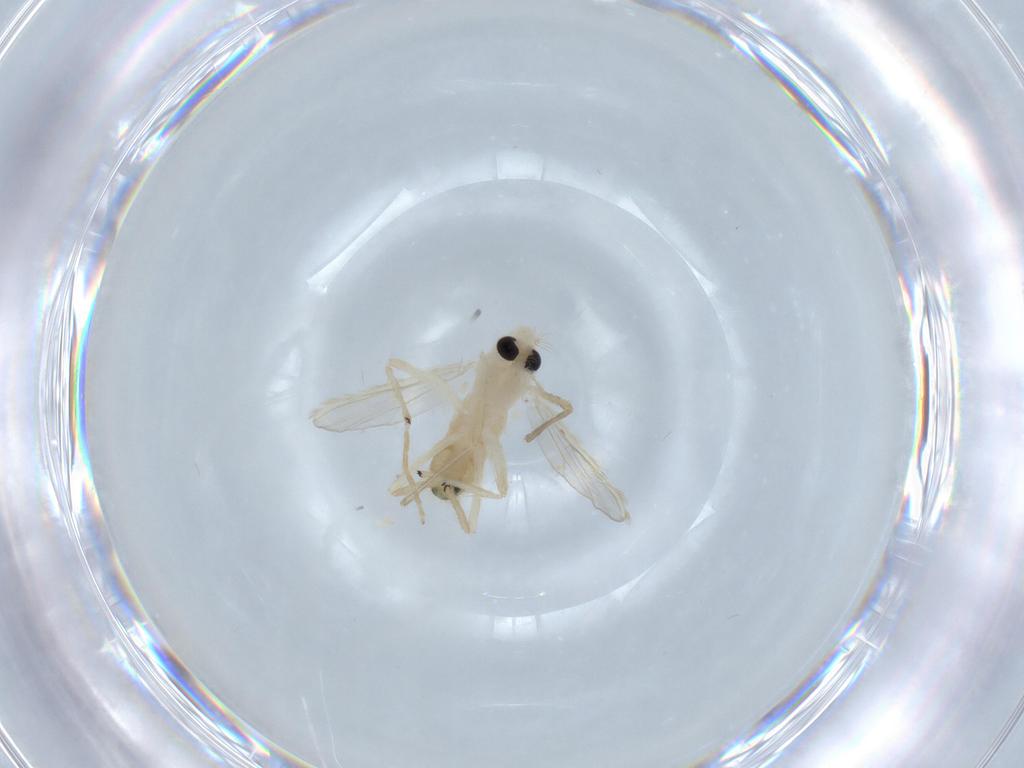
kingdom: Animalia
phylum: Arthropoda
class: Insecta
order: Diptera
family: Chironomidae
